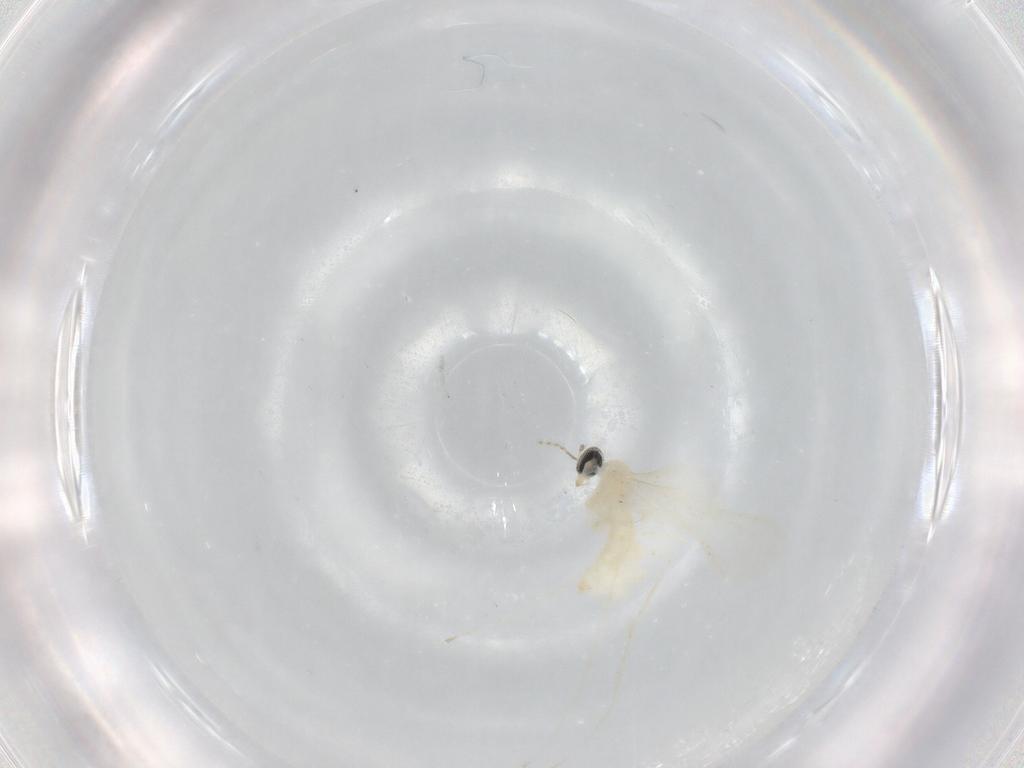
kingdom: Animalia
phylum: Arthropoda
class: Insecta
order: Diptera
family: Cecidomyiidae
